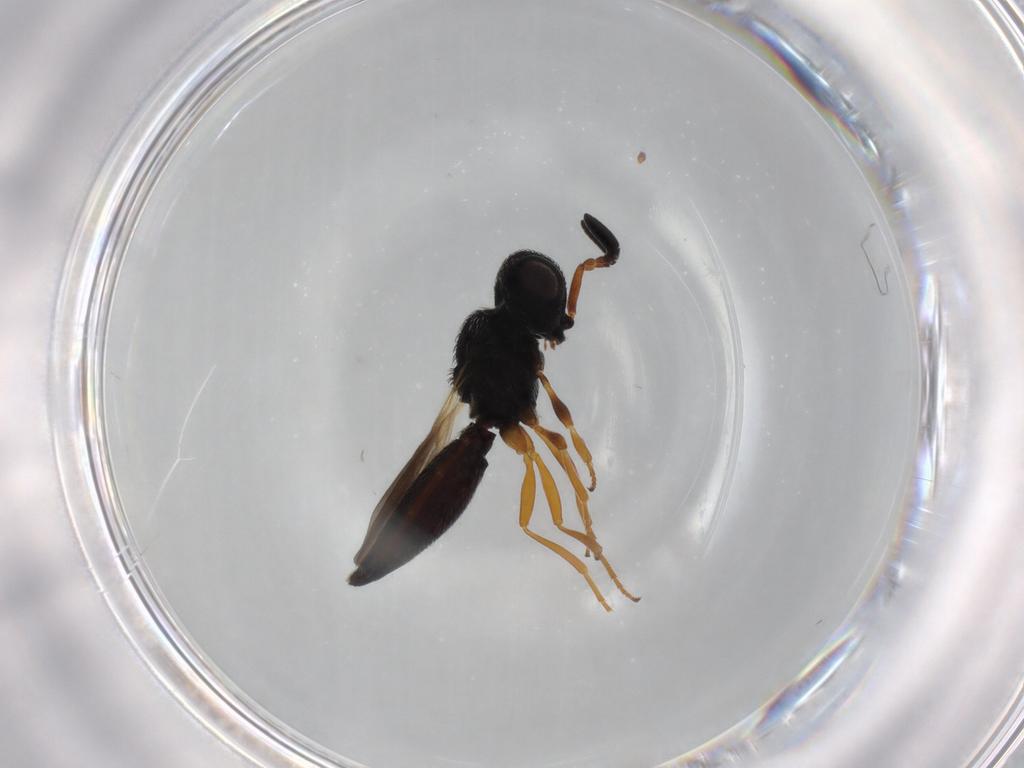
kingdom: Animalia
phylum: Arthropoda
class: Insecta
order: Hymenoptera
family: Scelionidae
